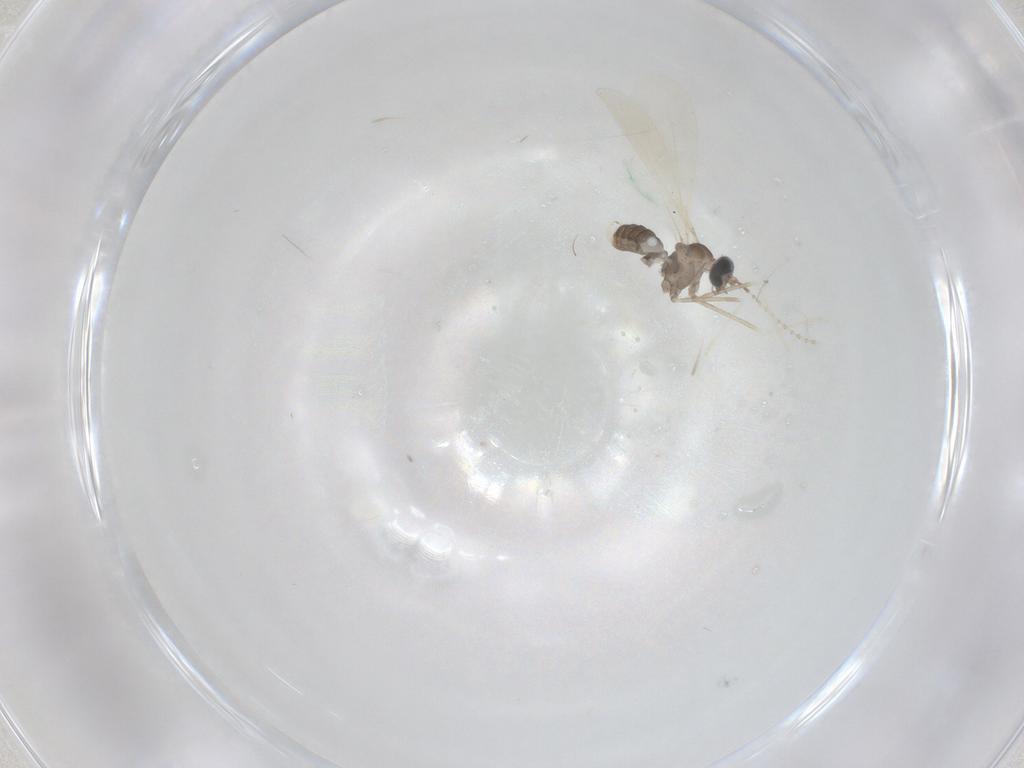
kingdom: Animalia
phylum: Arthropoda
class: Insecta
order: Diptera
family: Cecidomyiidae
